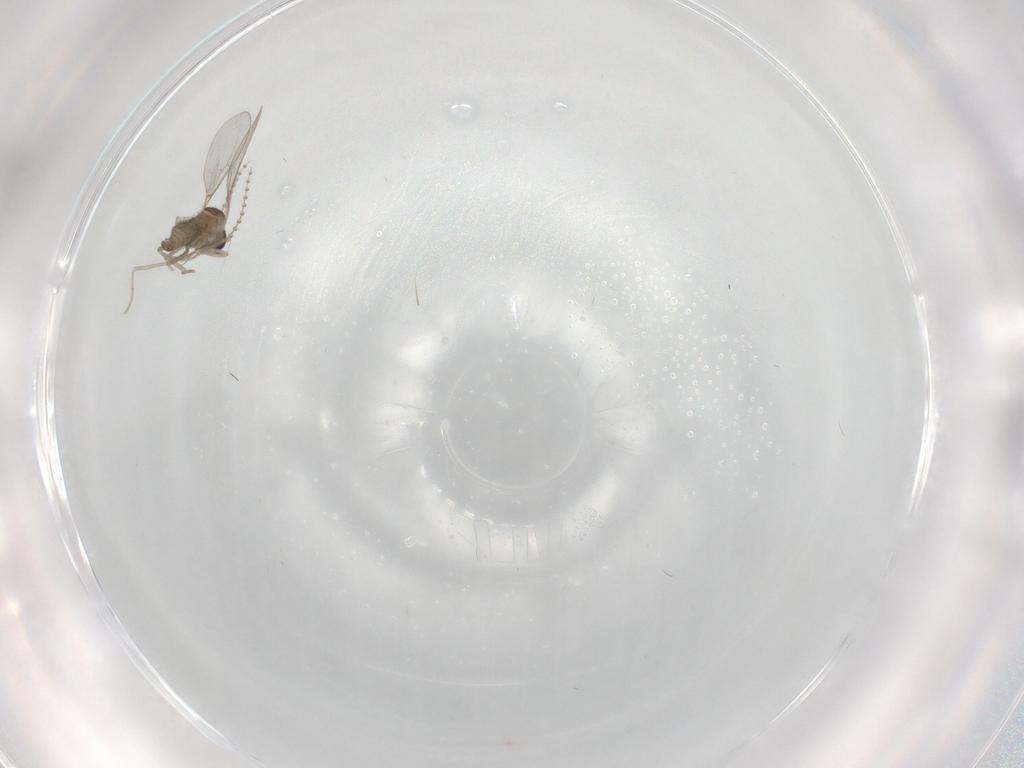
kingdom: Animalia
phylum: Arthropoda
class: Insecta
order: Diptera
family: Cecidomyiidae
